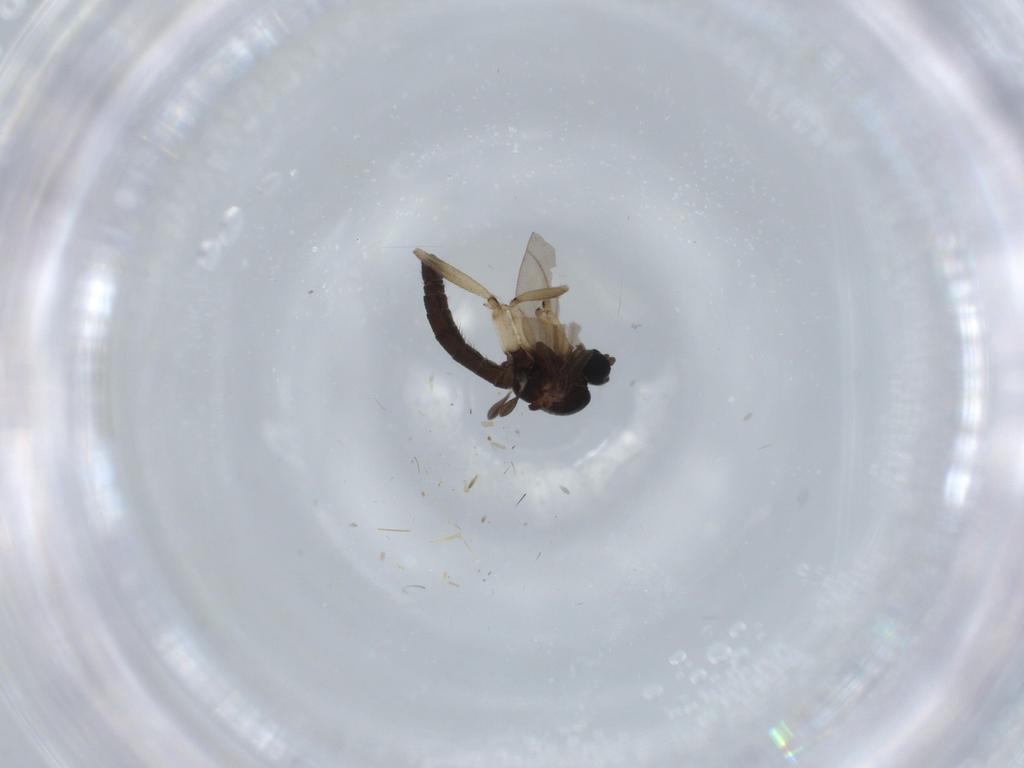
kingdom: Animalia
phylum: Arthropoda
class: Insecta
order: Diptera
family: Sciaridae
